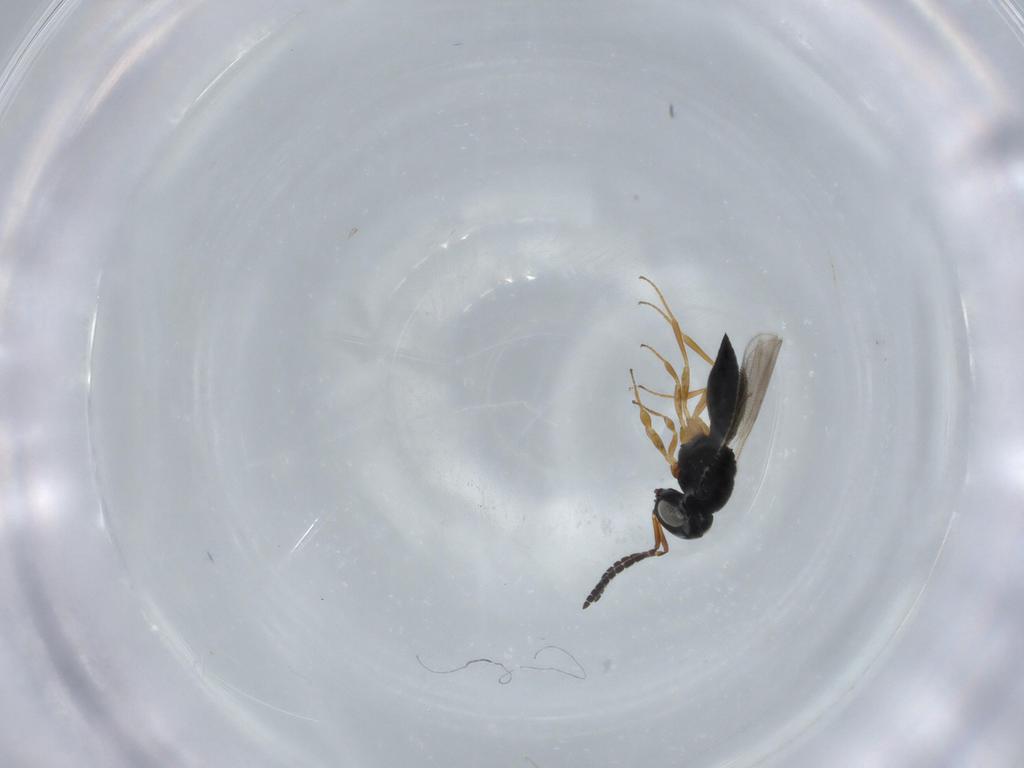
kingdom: Animalia
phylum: Arthropoda
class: Insecta
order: Hymenoptera
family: Scelionidae
